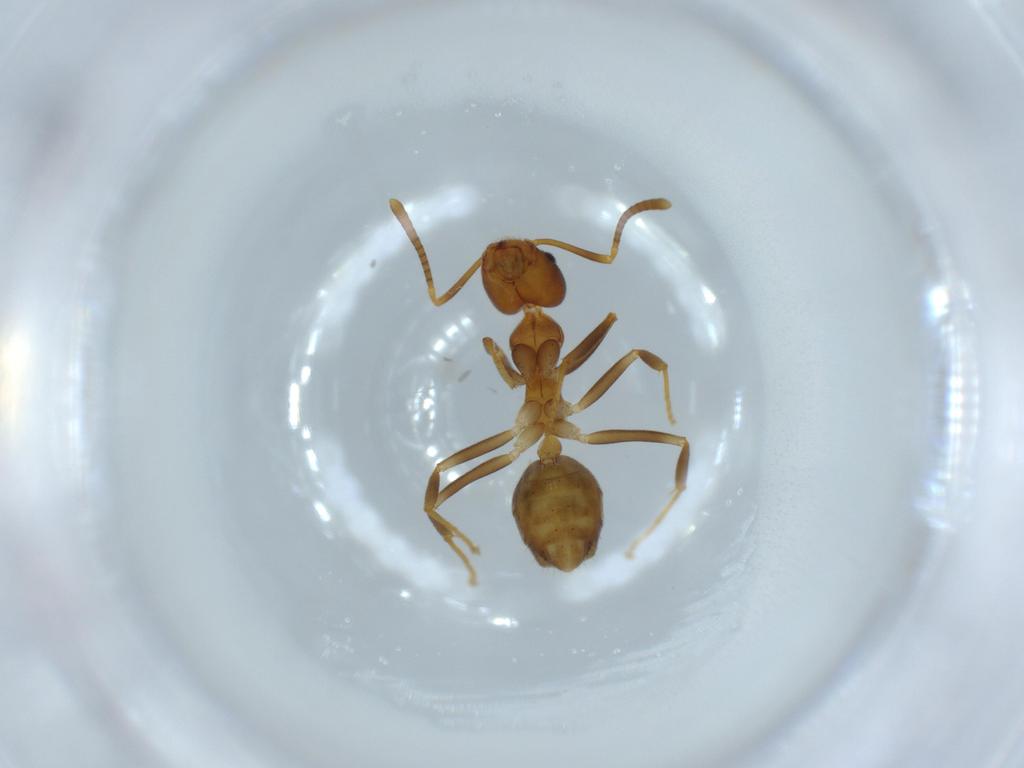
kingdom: Animalia
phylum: Arthropoda
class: Insecta
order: Hymenoptera
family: Formicidae
